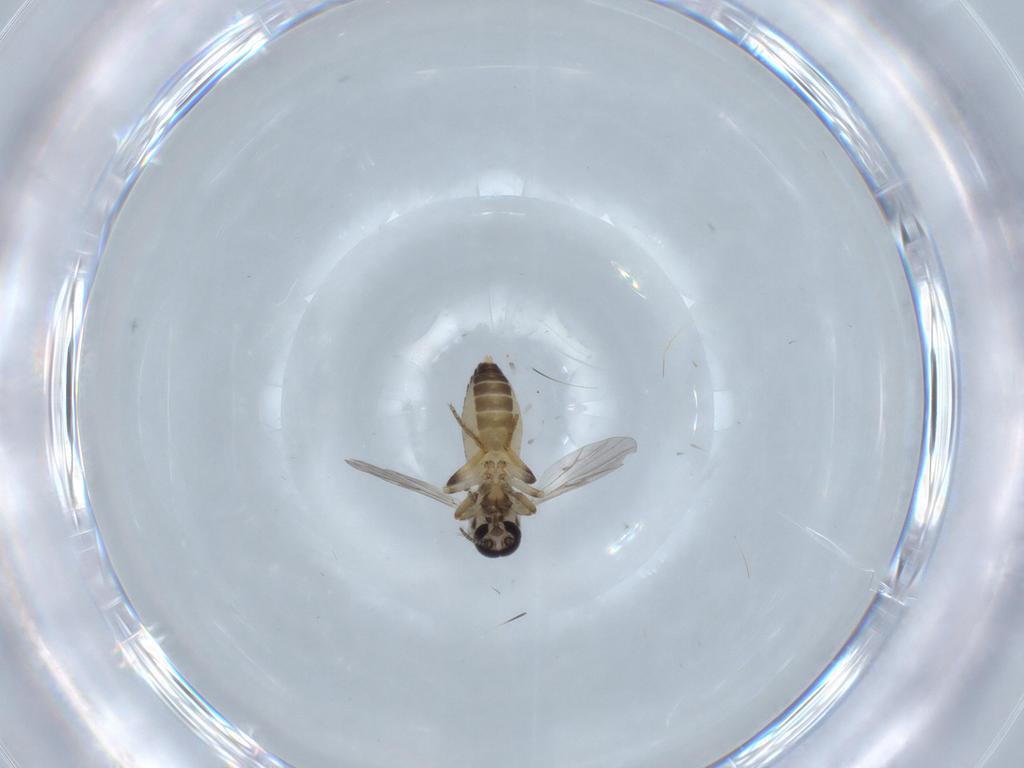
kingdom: Animalia
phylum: Arthropoda
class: Insecta
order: Diptera
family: Ceratopogonidae
